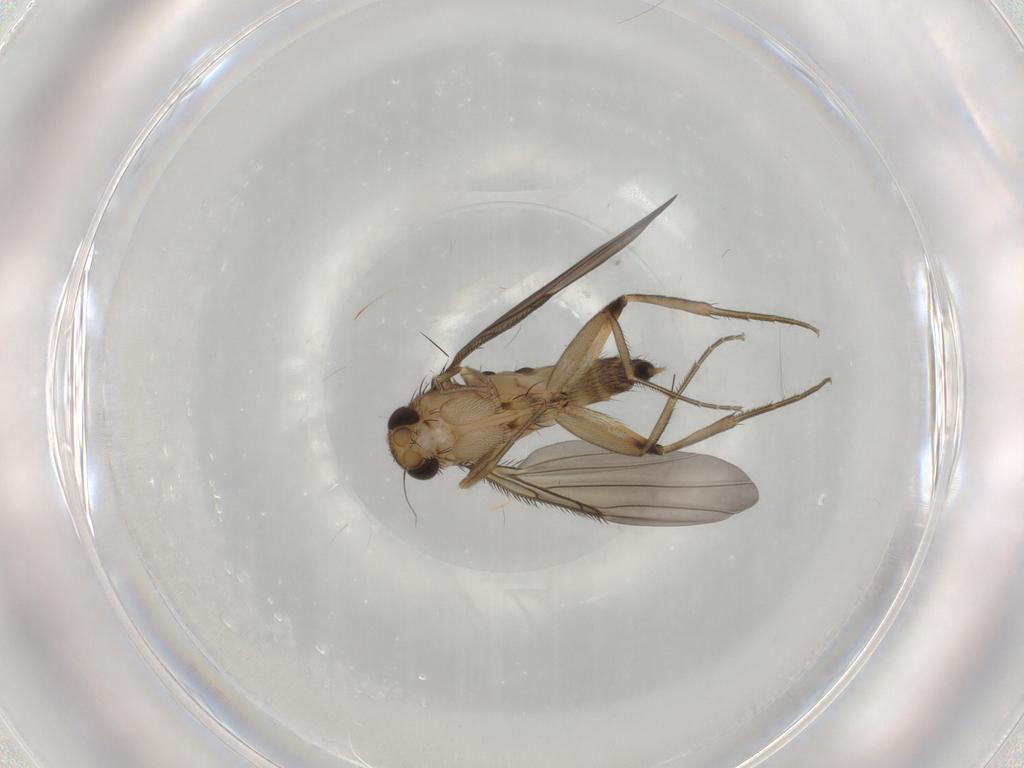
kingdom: Animalia
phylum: Arthropoda
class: Insecta
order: Diptera
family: Phoridae
